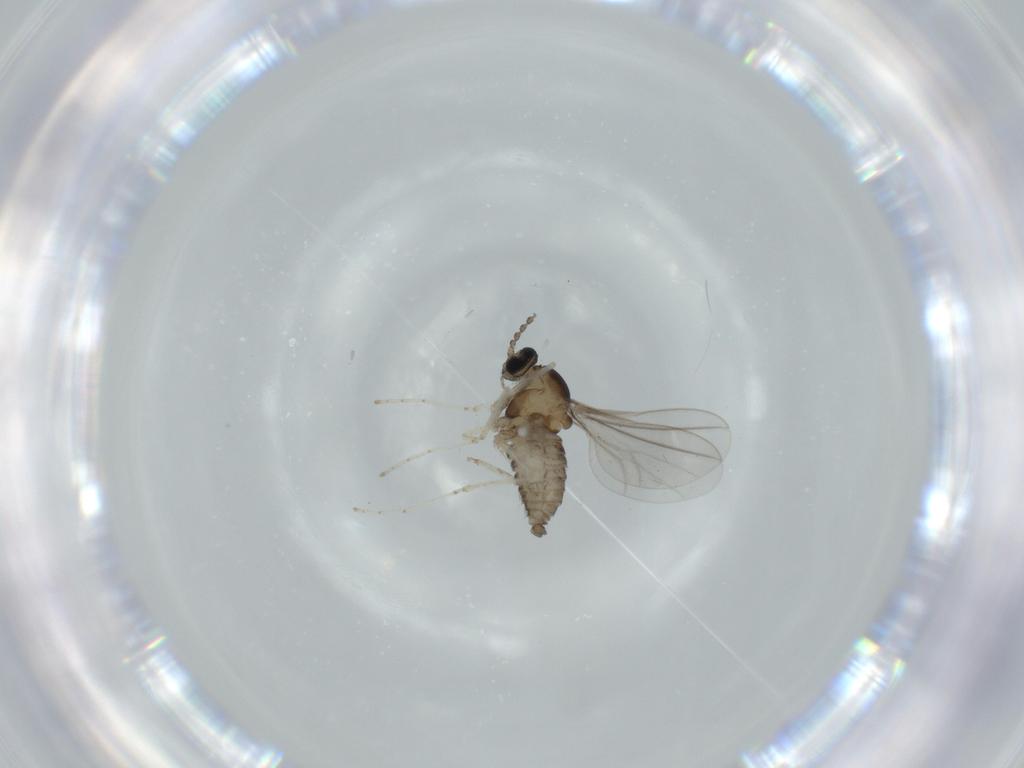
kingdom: Animalia
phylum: Arthropoda
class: Insecta
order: Diptera
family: Cecidomyiidae
